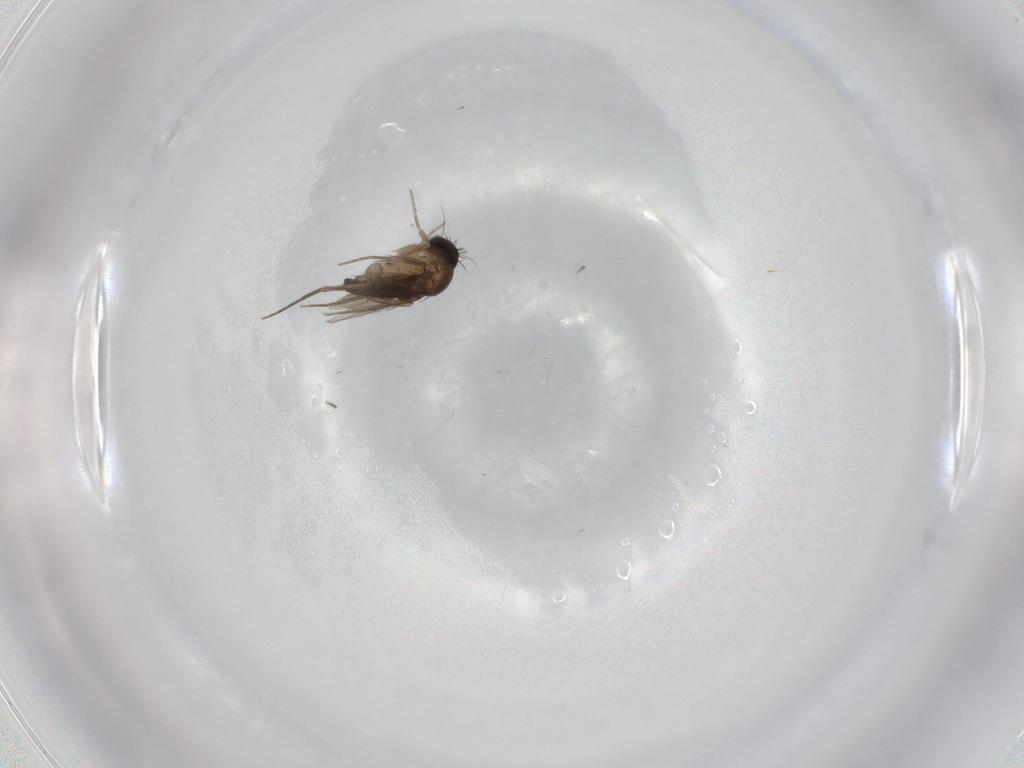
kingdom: Animalia
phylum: Arthropoda
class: Insecta
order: Diptera
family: Phoridae
